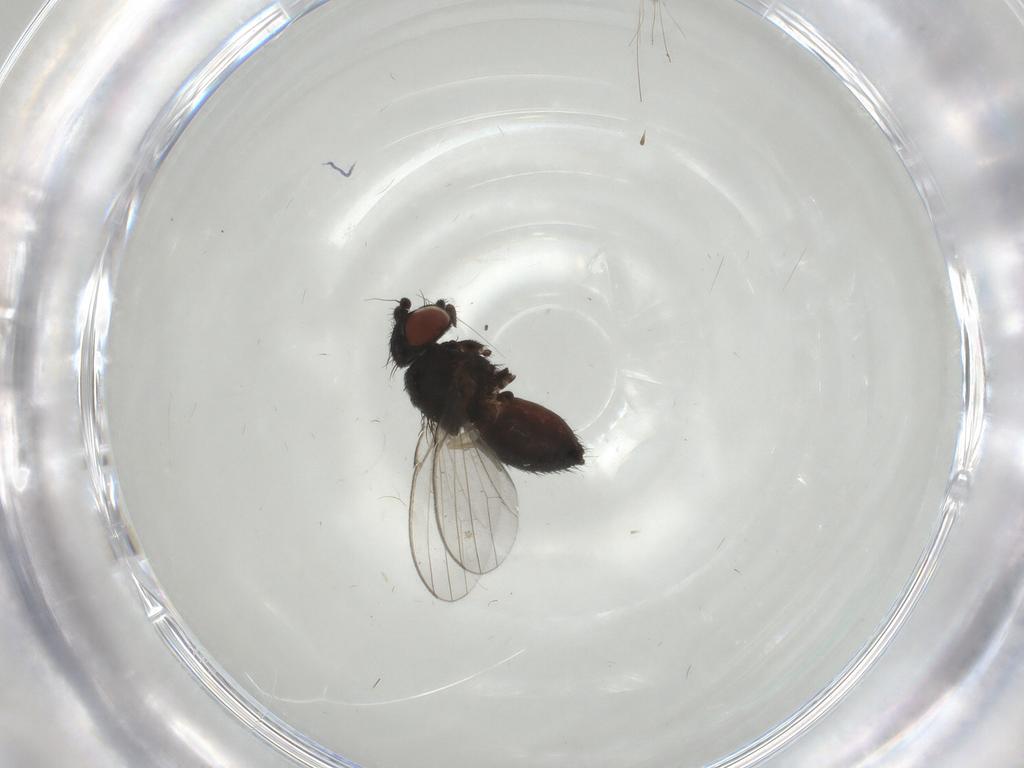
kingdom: Animalia
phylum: Arthropoda
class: Insecta
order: Diptera
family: Milichiidae
